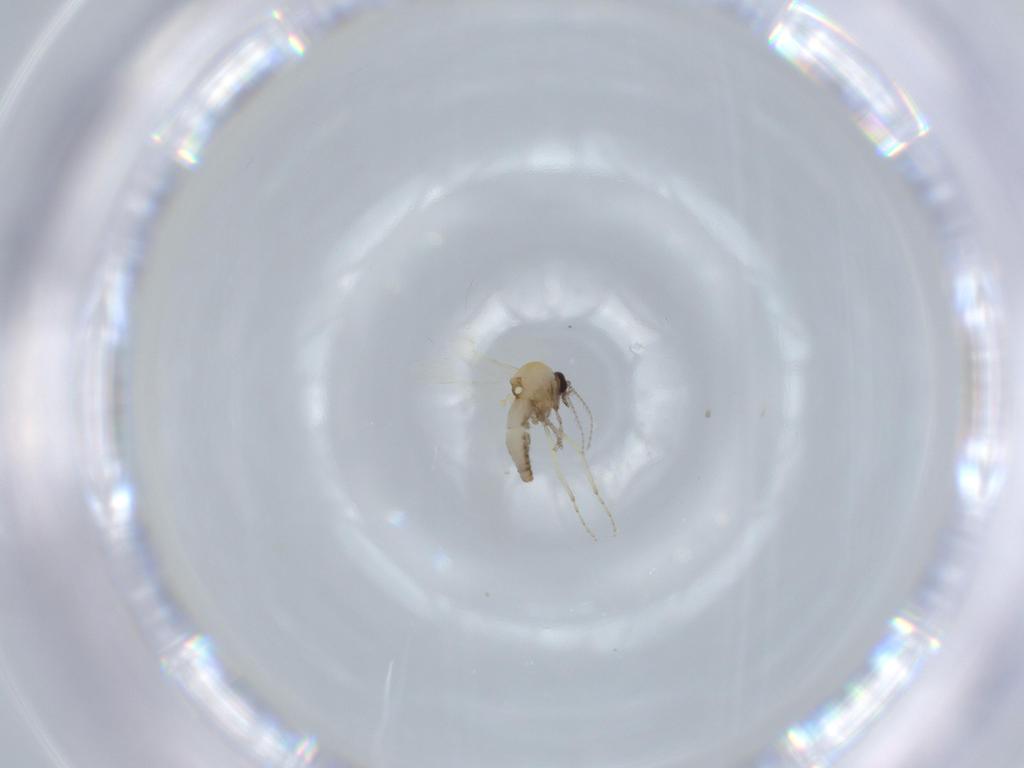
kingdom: Animalia
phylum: Arthropoda
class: Insecta
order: Diptera
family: Ceratopogonidae
